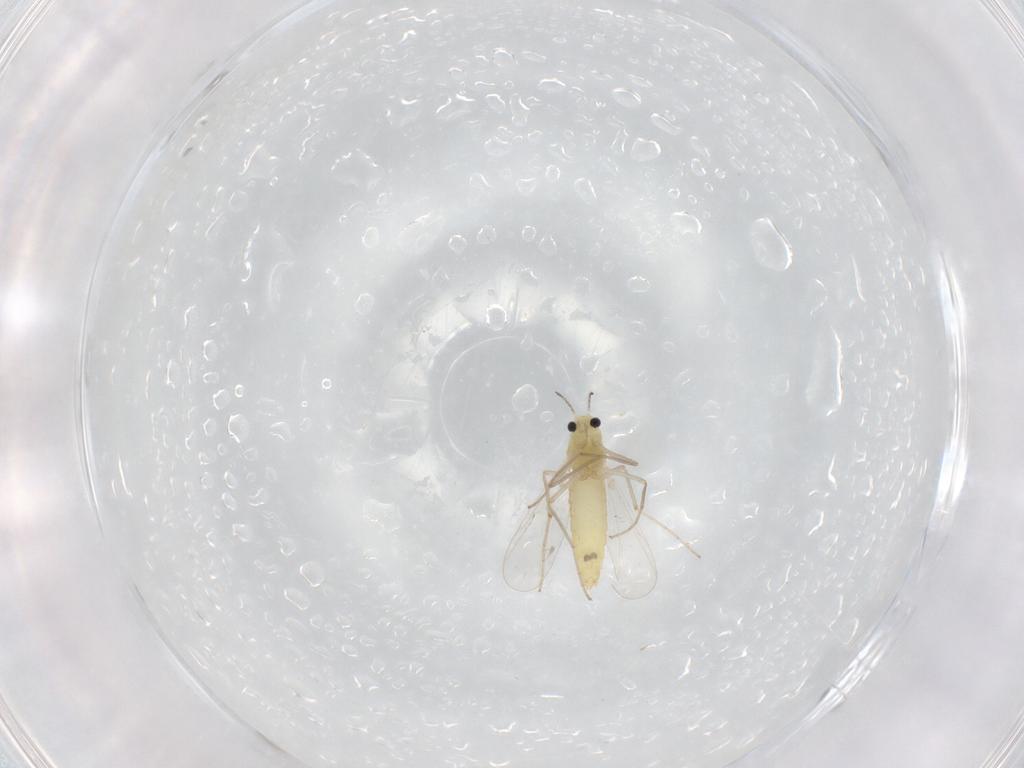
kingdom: Animalia
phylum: Arthropoda
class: Insecta
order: Diptera
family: Chironomidae
